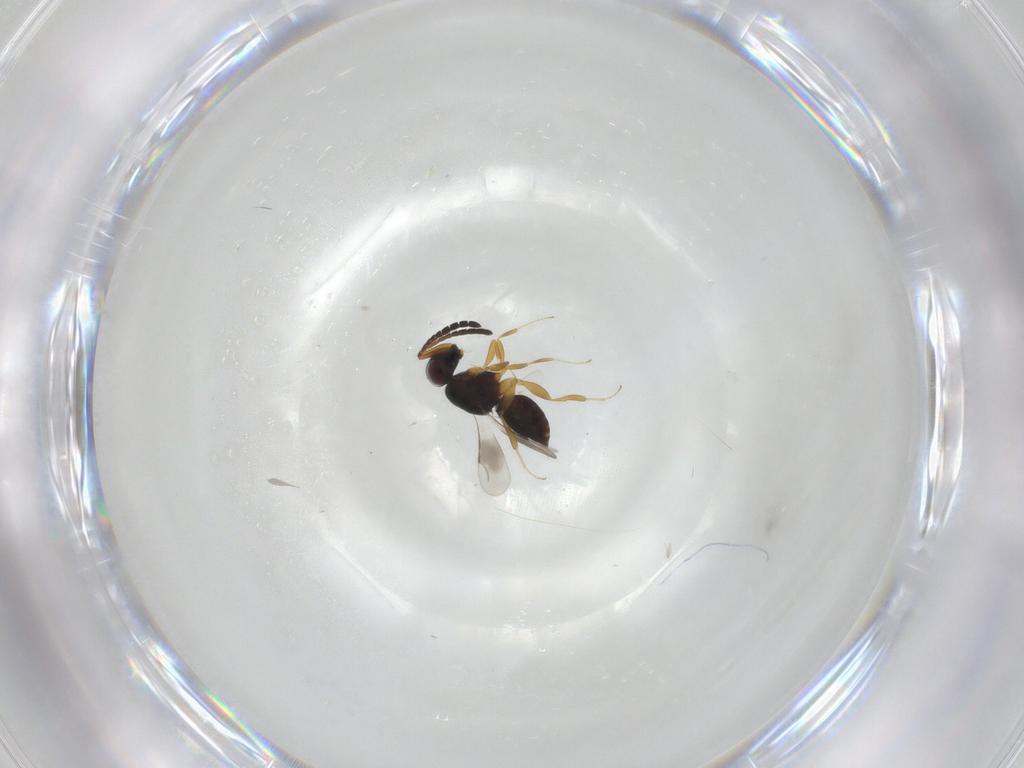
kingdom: Animalia
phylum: Arthropoda
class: Insecta
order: Hymenoptera
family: Ceraphronidae
